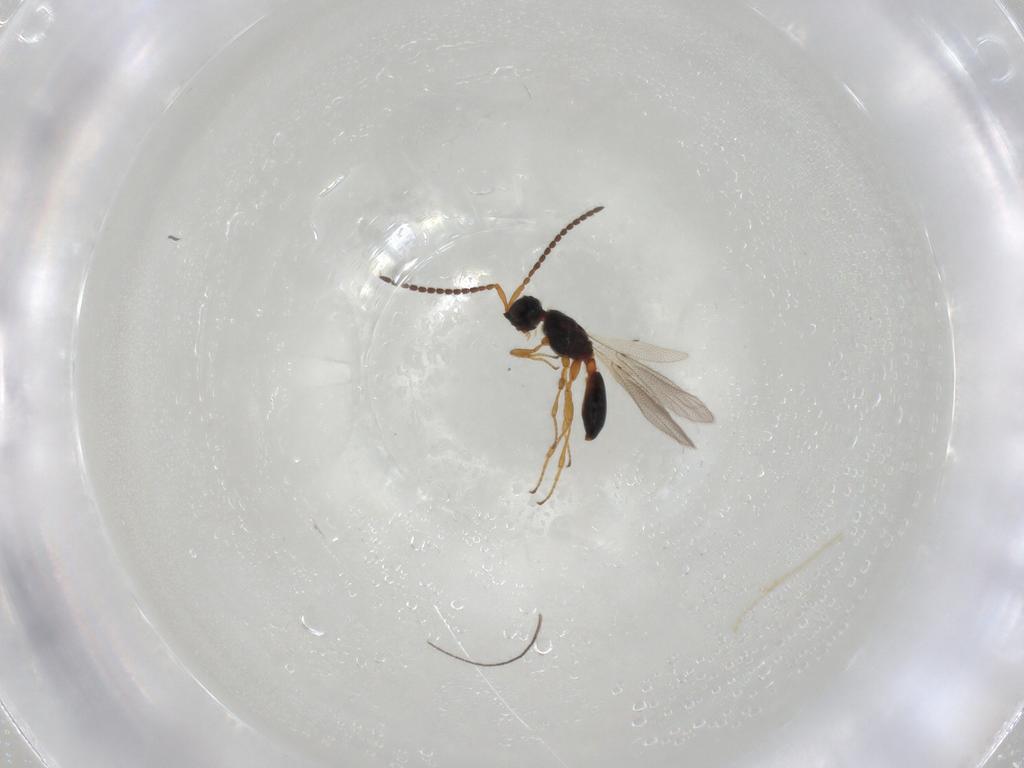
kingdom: Animalia
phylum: Arthropoda
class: Insecta
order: Hymenoptera
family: Diapriidae
